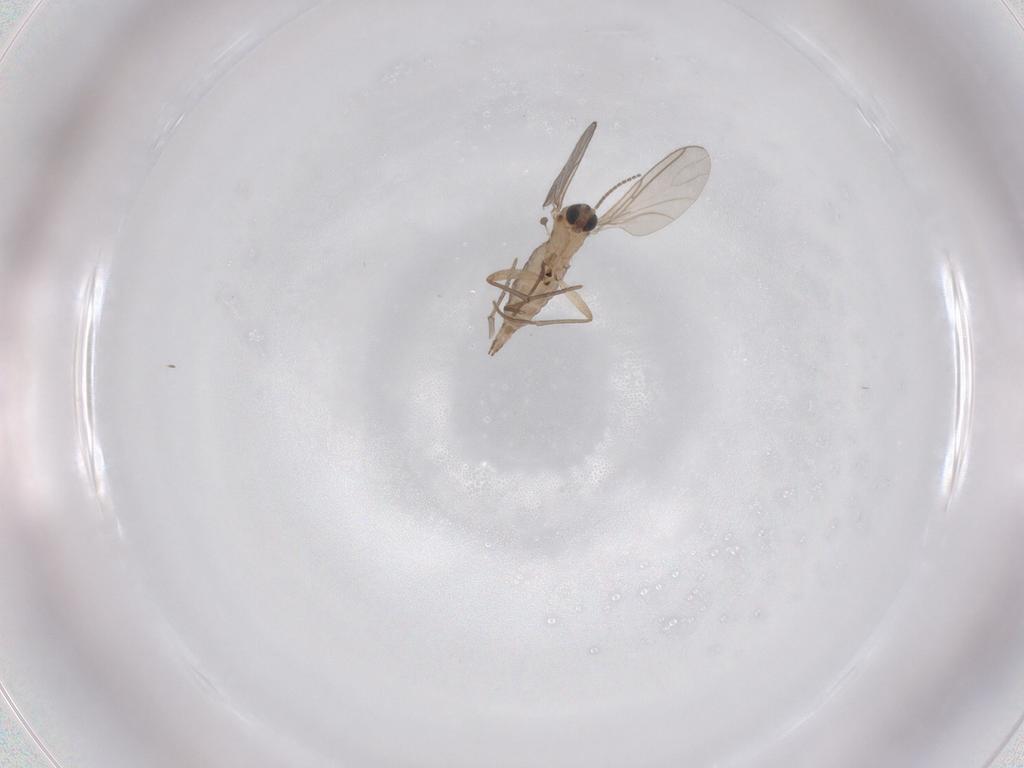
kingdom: Animalia
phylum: Arthropoda
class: Insecta
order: Diptera
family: Sciaridae
